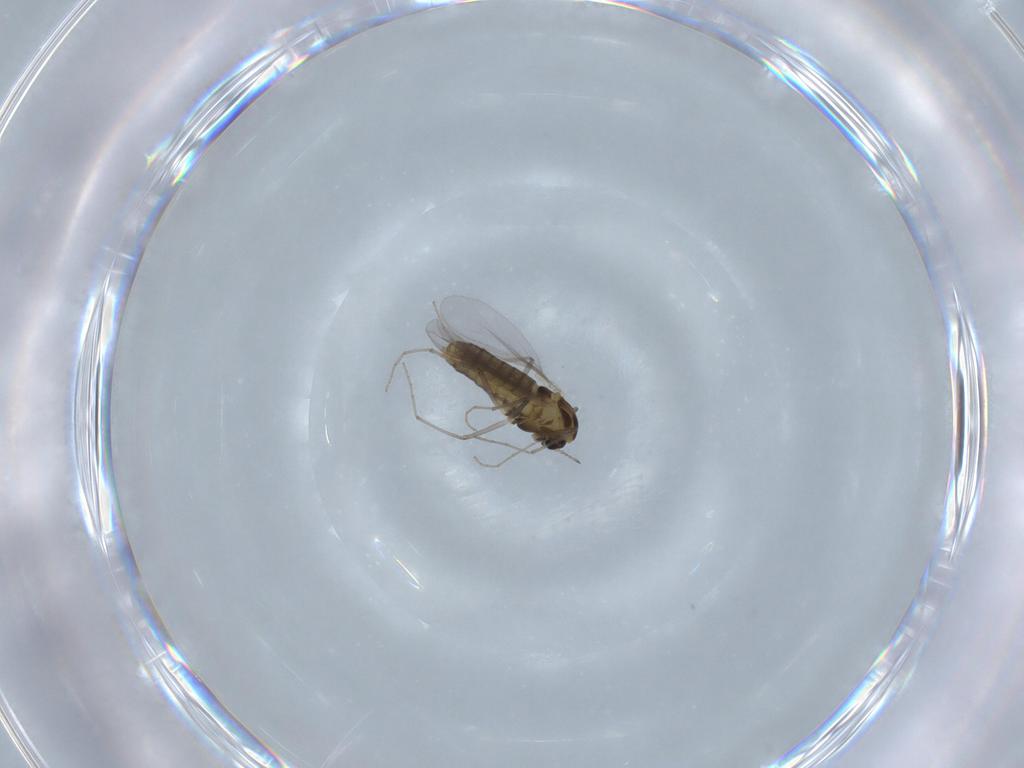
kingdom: Animalia
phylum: Arthropoda
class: Insecta
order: Diptera
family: Chironomidae
